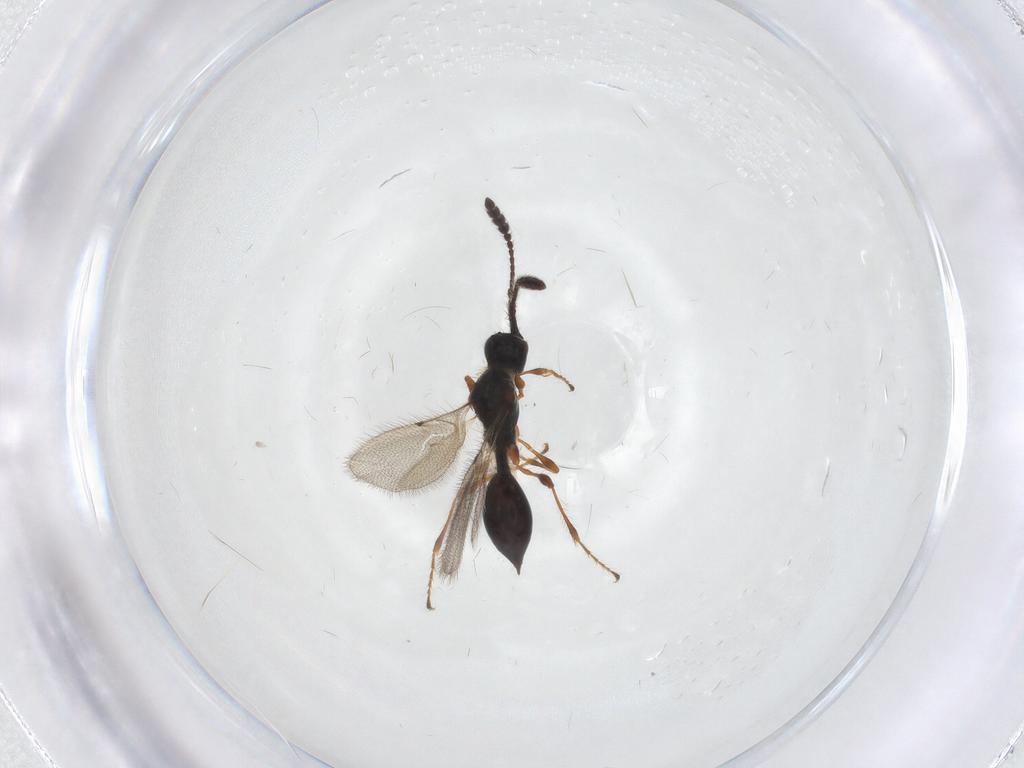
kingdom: Animalia
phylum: Arthropoda
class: Insecta
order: Hymenoptera
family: Diapriidae
